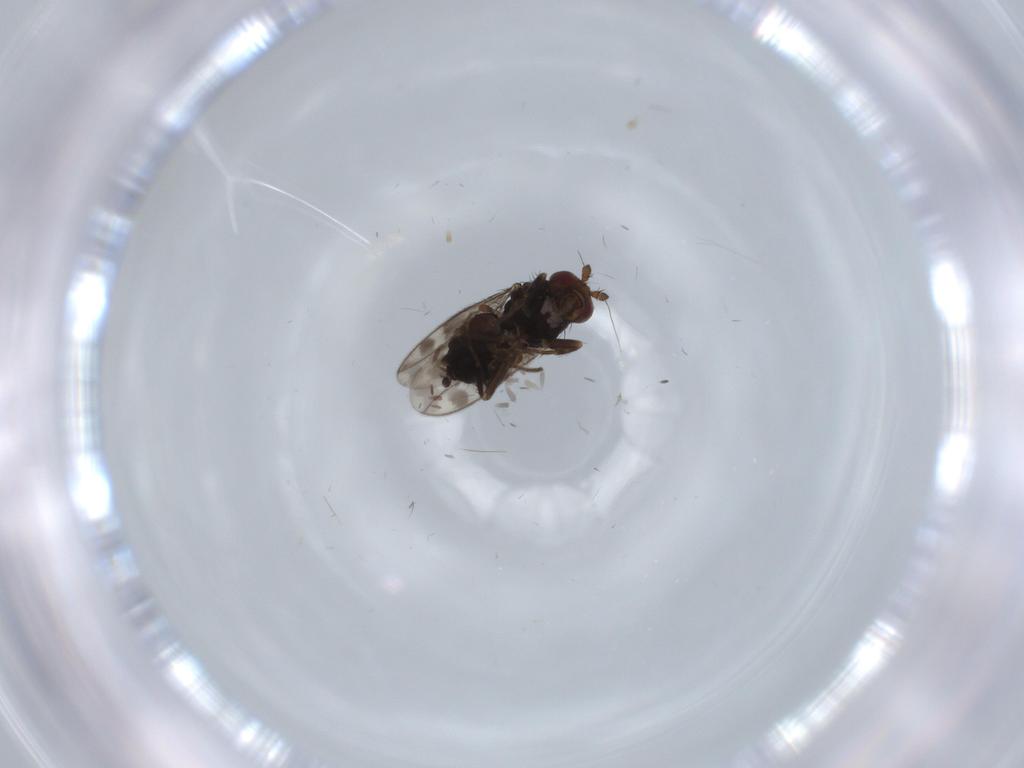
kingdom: Animalia
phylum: Arthropoda
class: Insecta
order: Diptera
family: Sphaeroceridae
